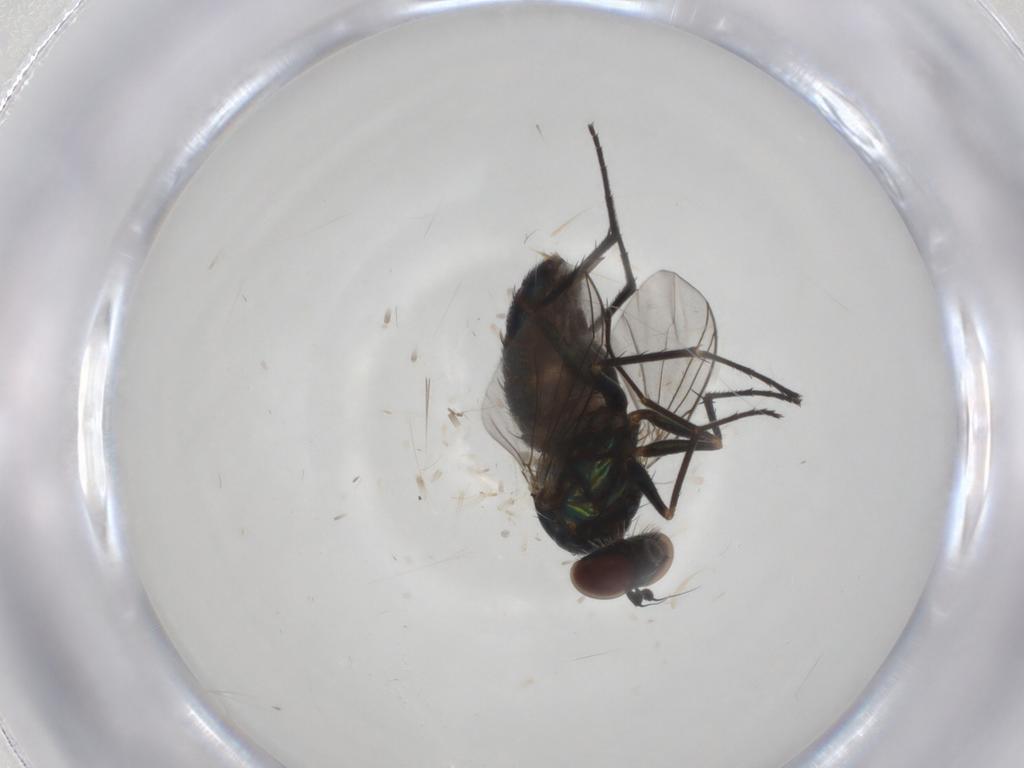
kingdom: Animalia
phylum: Arthropoda
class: Insecta
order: Diptera
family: Dolichopodidae
